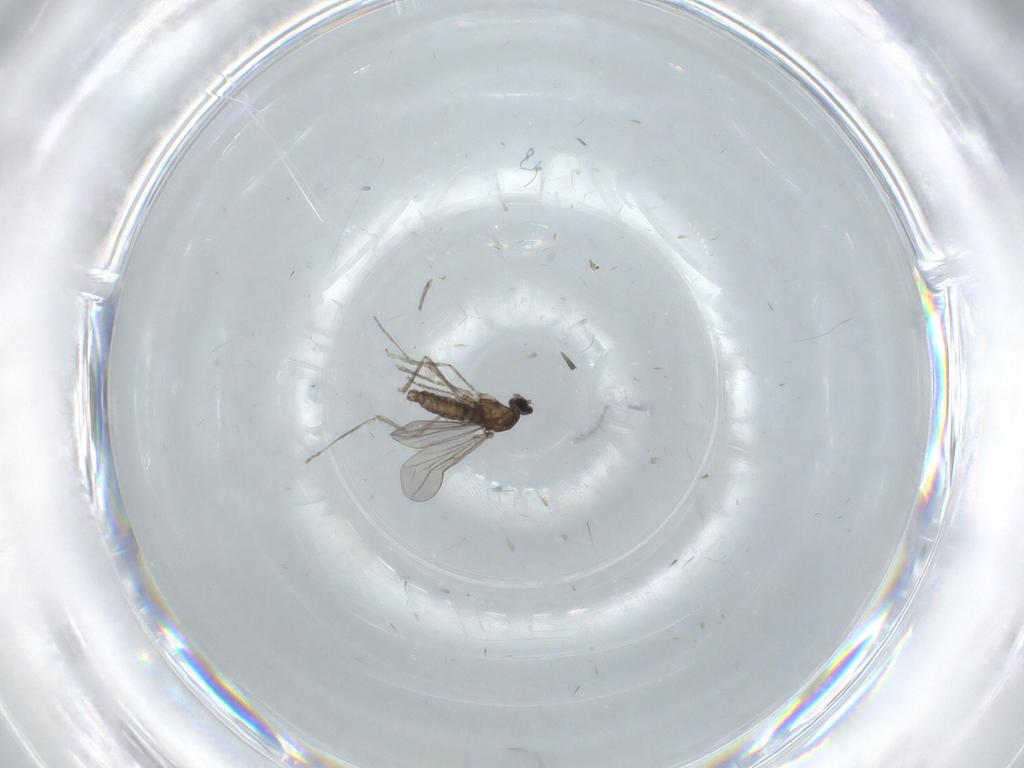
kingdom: Animalia
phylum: Arthropoda
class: Insecta
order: Diptera
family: Cecidomyiidae
